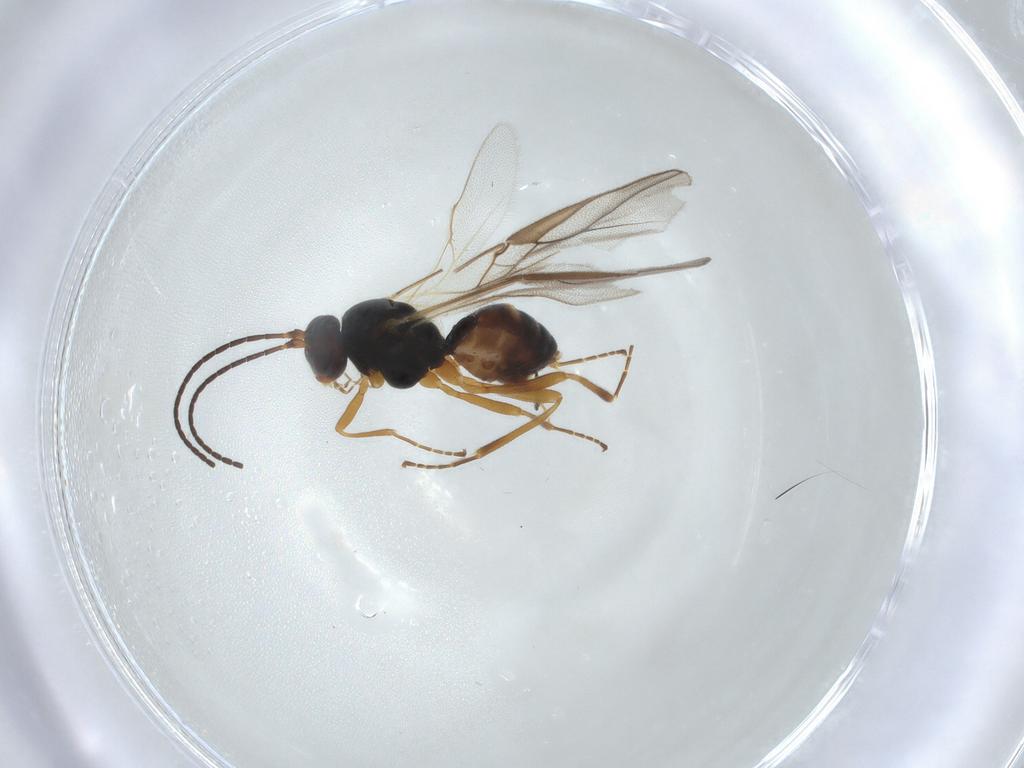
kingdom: Animalia
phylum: Arthropoda
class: Insecta
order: Hymenoptera
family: Braconidae
